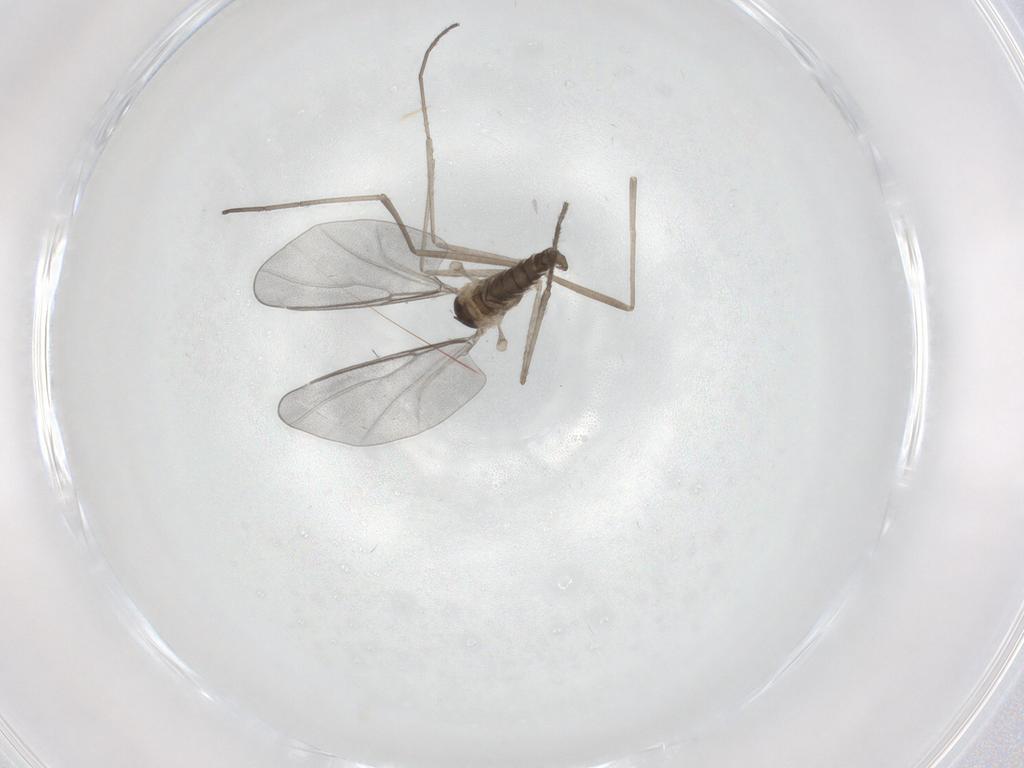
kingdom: Animalia
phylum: Arthropoda
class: Insecta
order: Diptera
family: Cecidomyiidae
